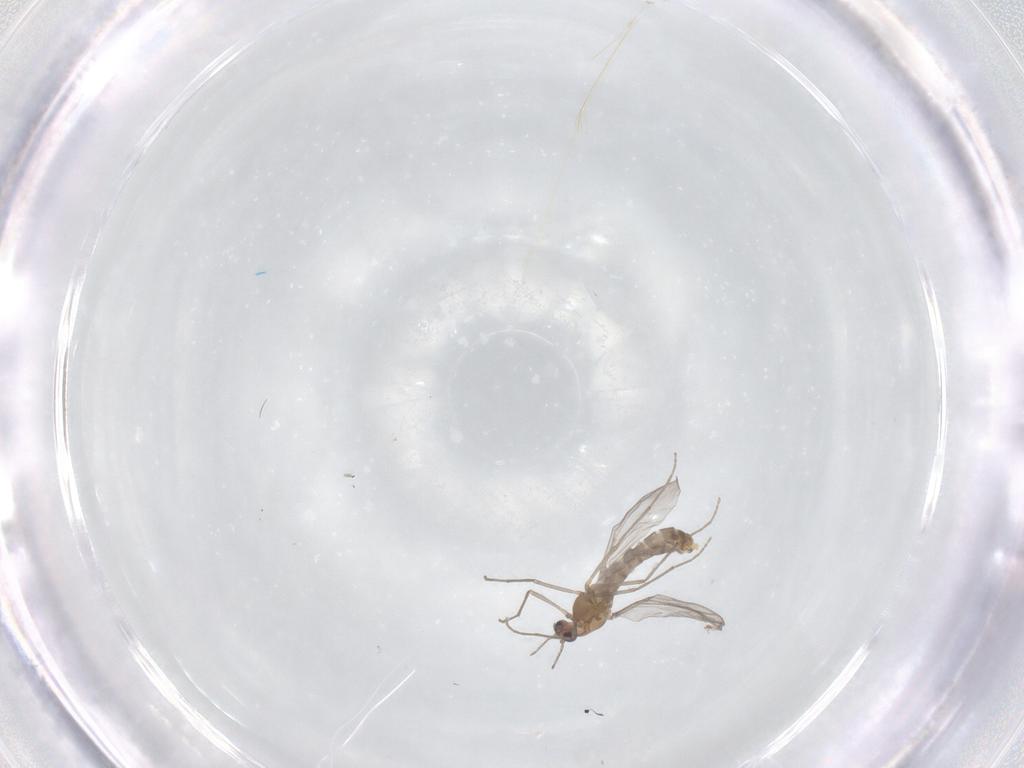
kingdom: Animalia
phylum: Arthropoda
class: Insecta
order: Diptera
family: Chironomidae
